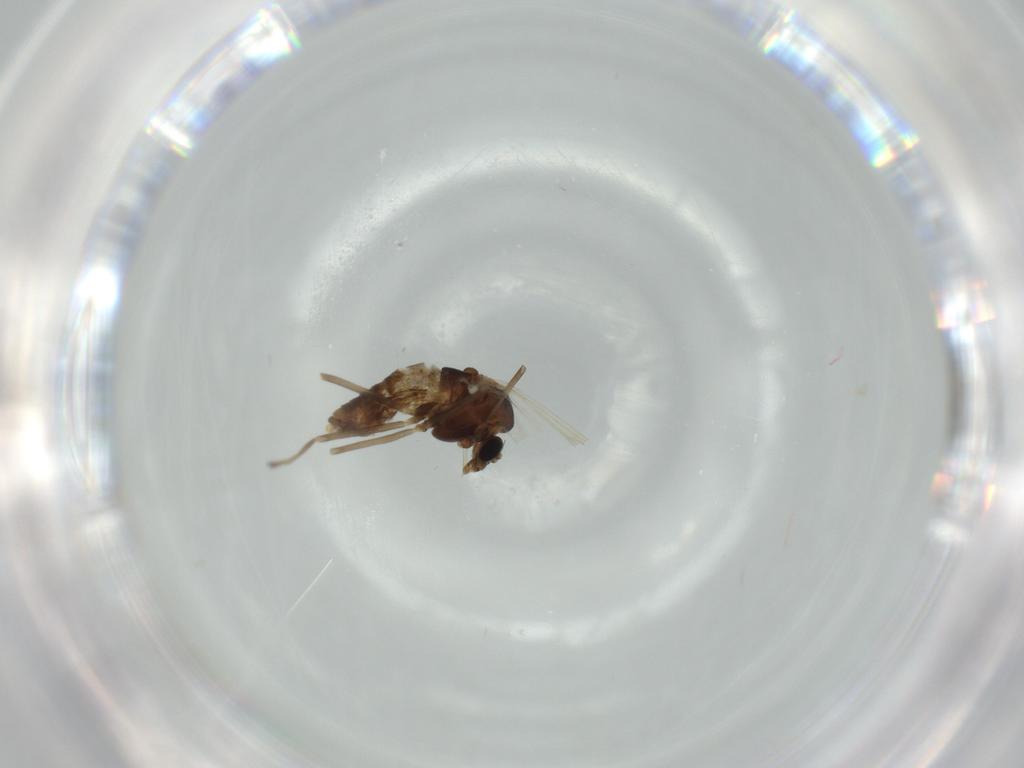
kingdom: Animalia
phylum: Arthropoda
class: Insecta
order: Diptera
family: Chironomidae
